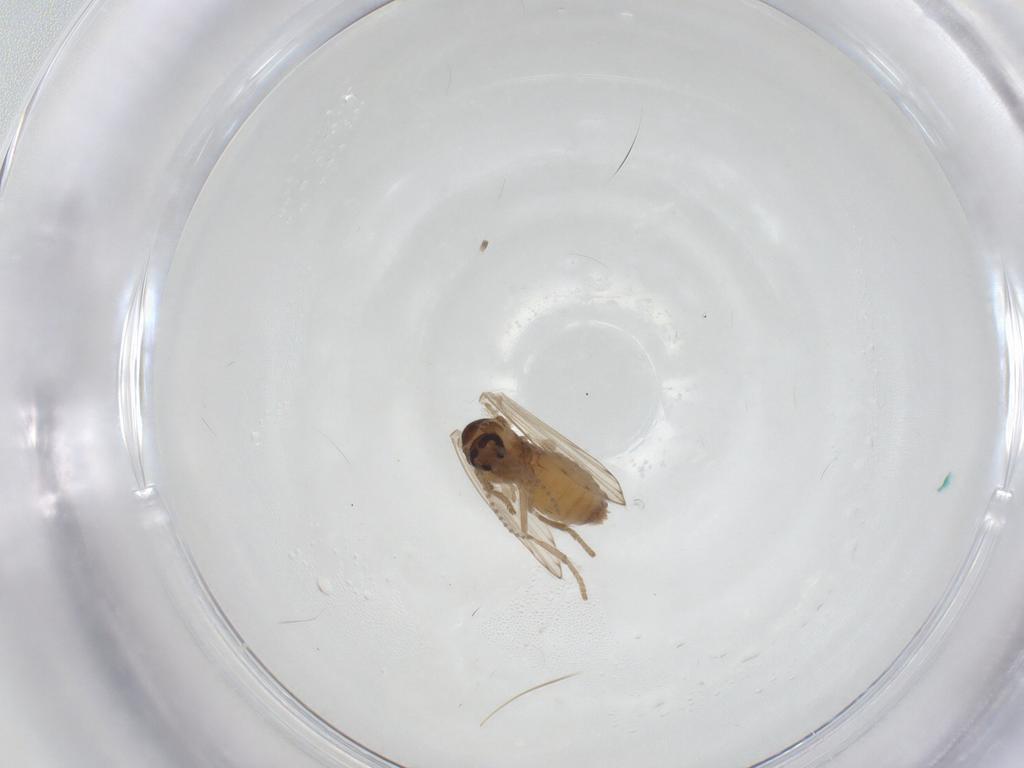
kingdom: Animalia
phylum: Arthropoda
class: Insecta
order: Diptera
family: Psychodidae
